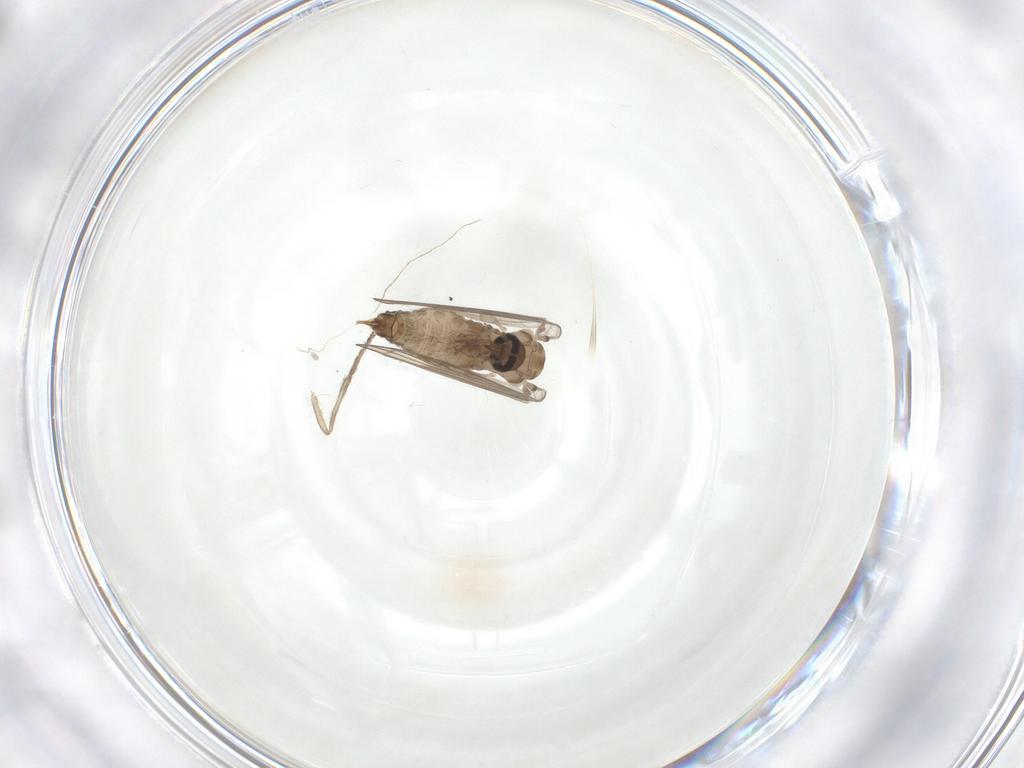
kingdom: Animalia
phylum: Arthropoda
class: Insecta
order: Diptera
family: Psychodidae
